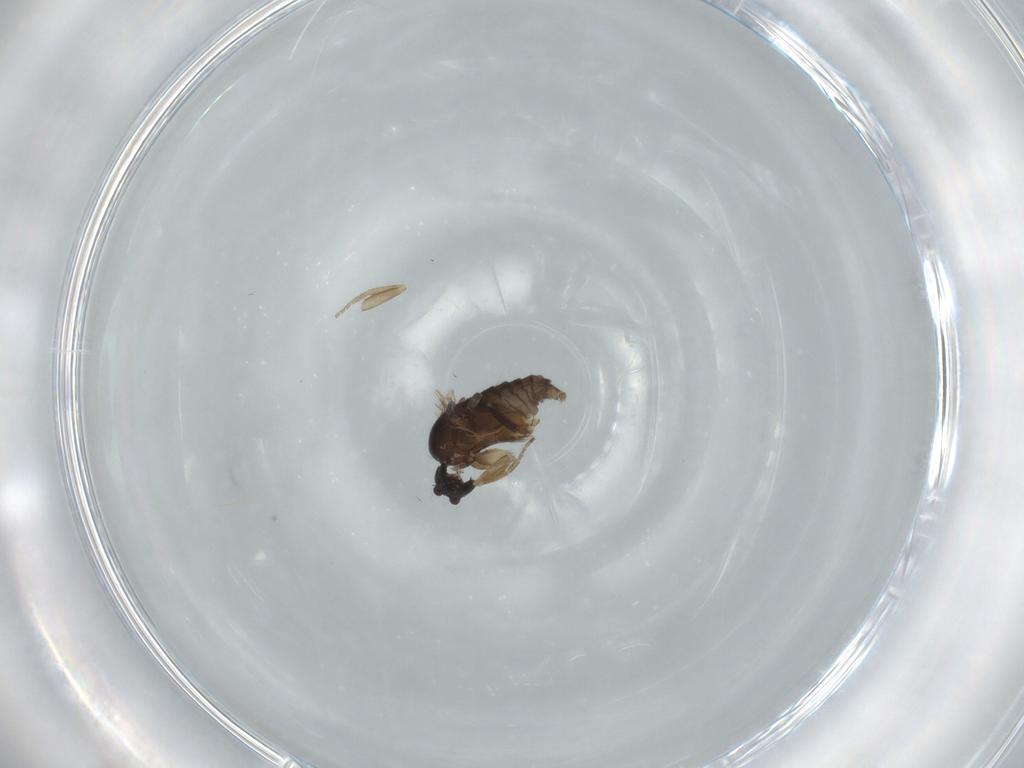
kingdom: Animalia
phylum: Arthropoda
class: Insecta
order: Diptera
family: Phoridae
